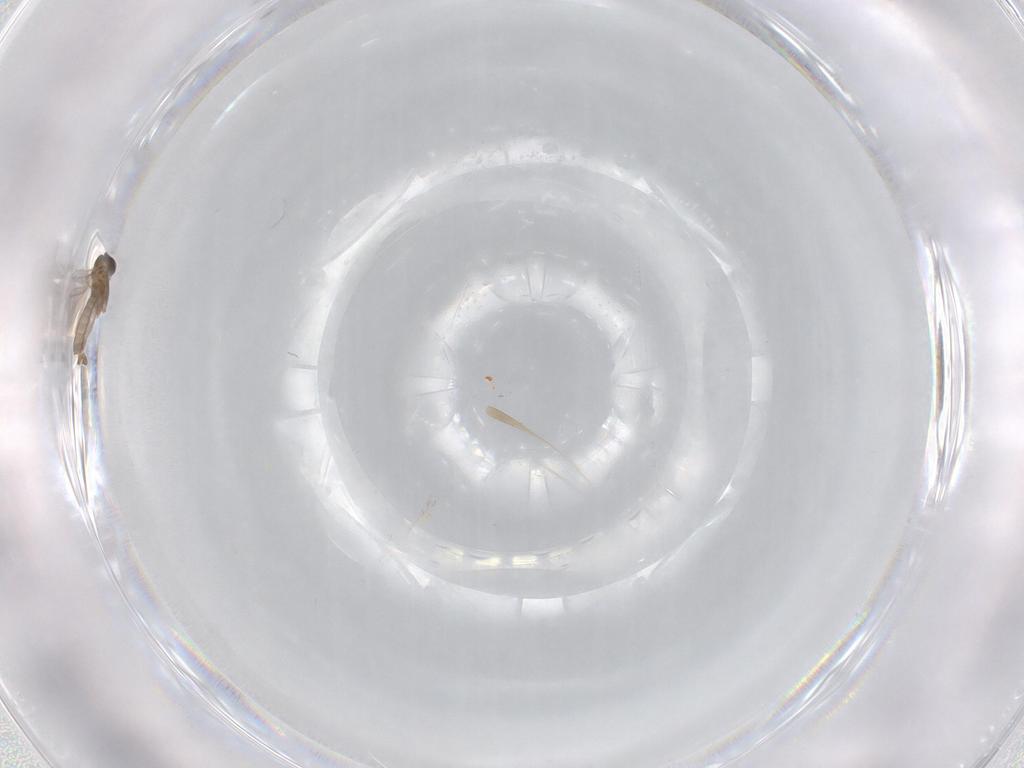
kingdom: Animalia
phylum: Arthropoda
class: Insecta
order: Diptera
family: Cecidomyiidae
